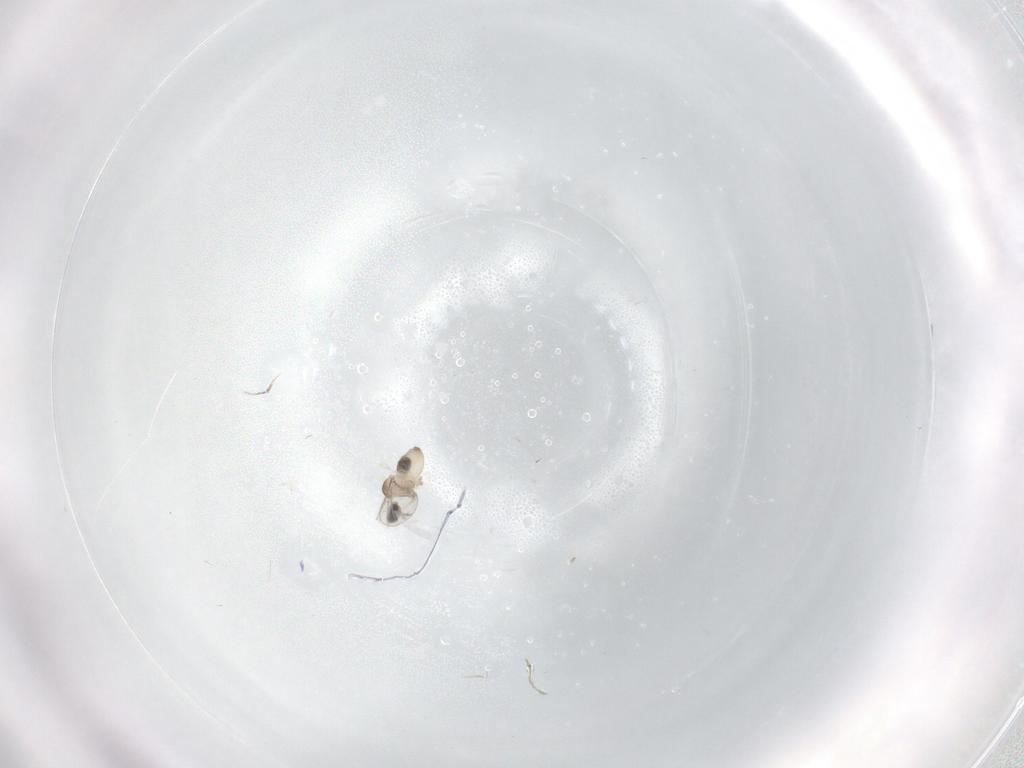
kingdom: Animalia
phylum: Arthropoda
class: Insecta
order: Diptera
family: Cecidomyiidae
